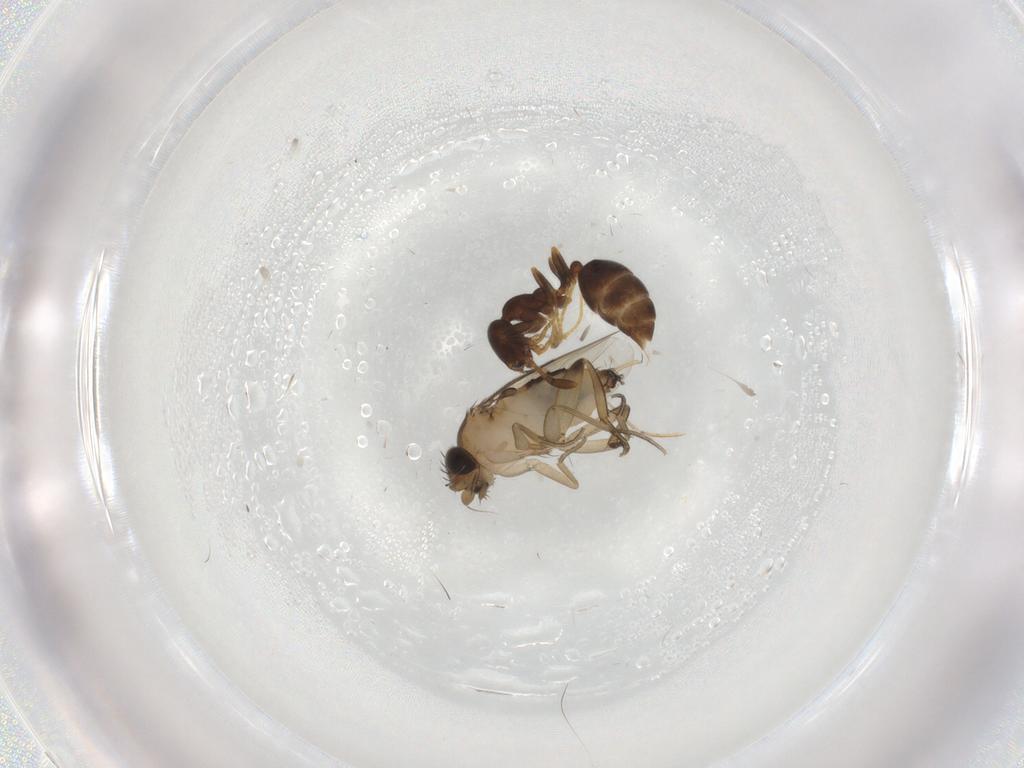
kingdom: Animalia
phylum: Arthropoda
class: Insecta
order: Diptera
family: Phoridae
